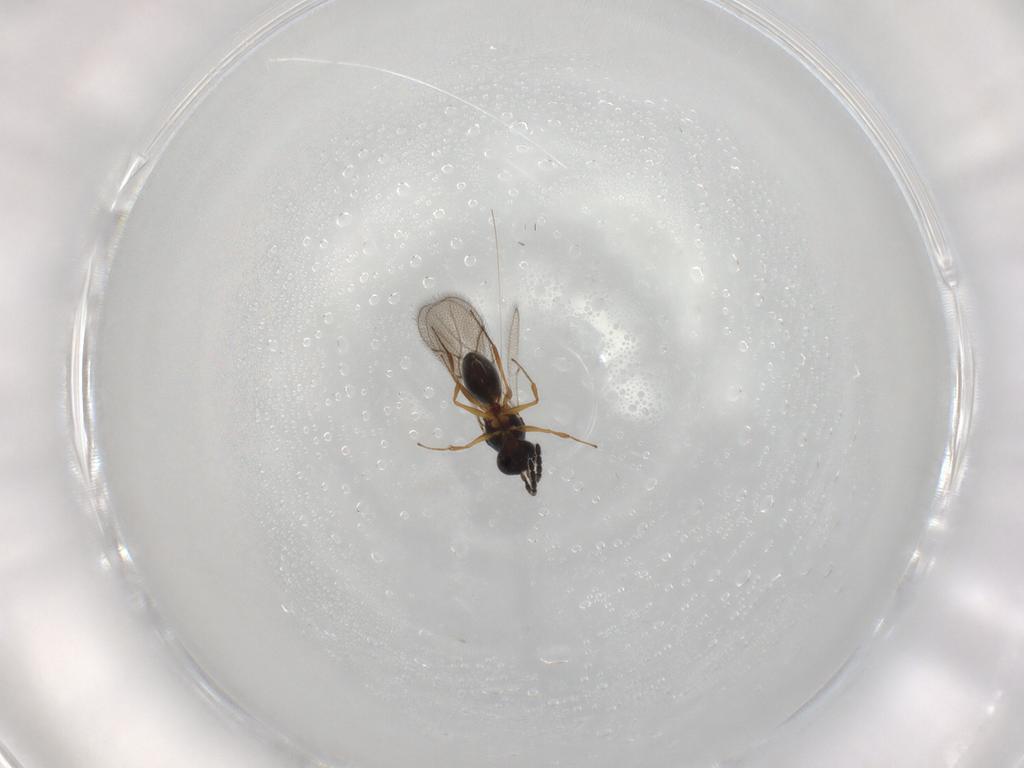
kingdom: Animalia
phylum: Arthropoda
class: Insecta
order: Hymenoptera
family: Figitidae
